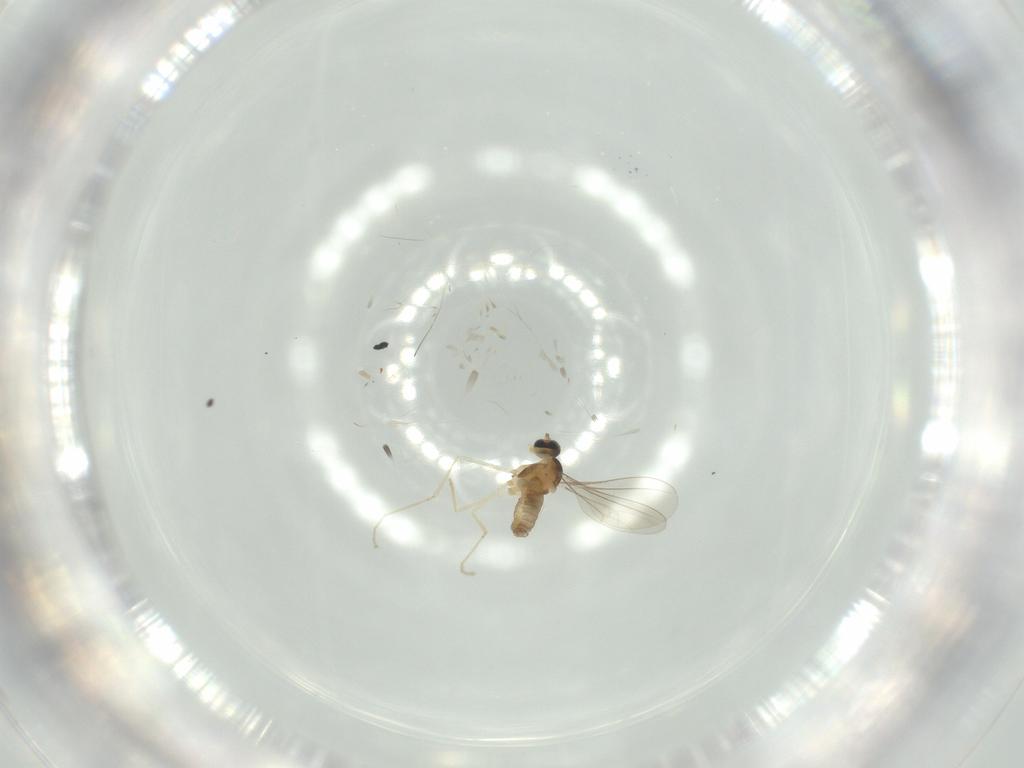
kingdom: Animalia
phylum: Arthropoda
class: Insecta
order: Diptera
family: Cecidomyiidae
